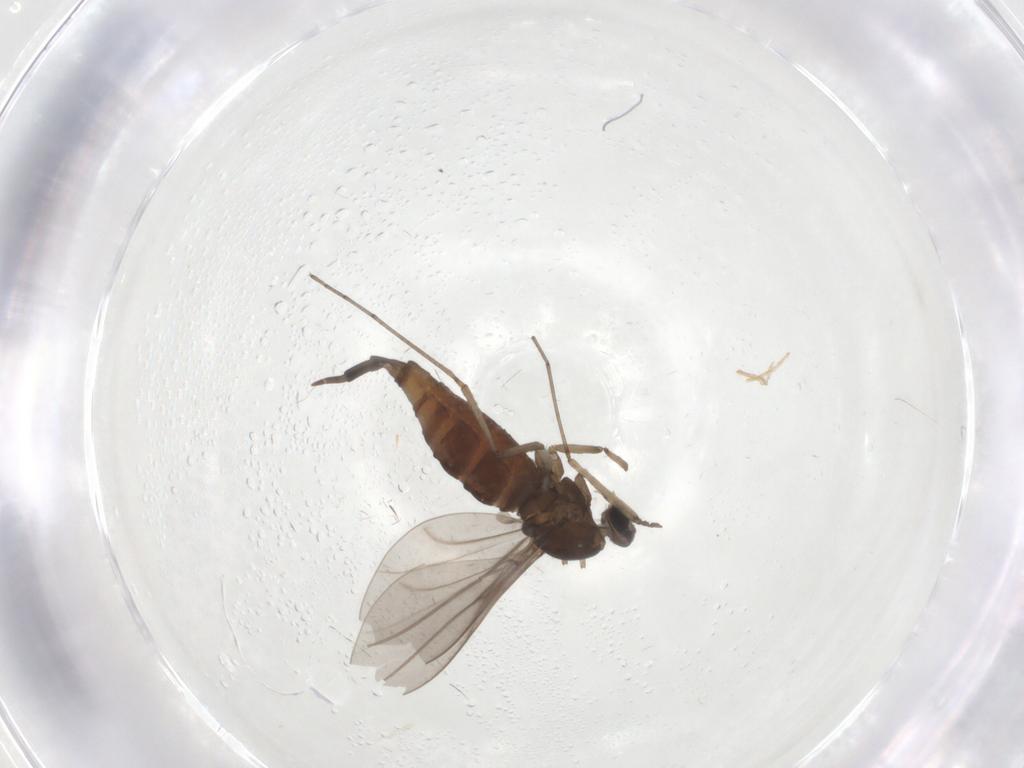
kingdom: Animalia
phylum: Arthropoda
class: Insecta
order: Diptera
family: Cecidomyiidae
